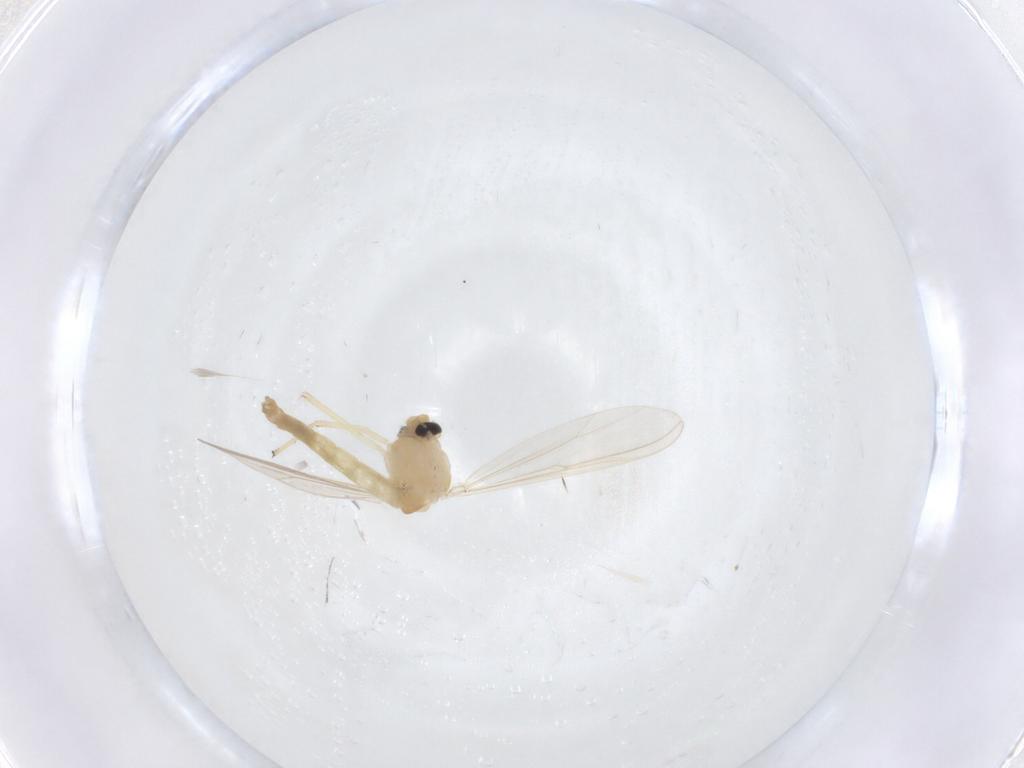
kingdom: Animalia
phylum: Arthropoda
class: Insecta
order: Diptera
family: Chironomidae
